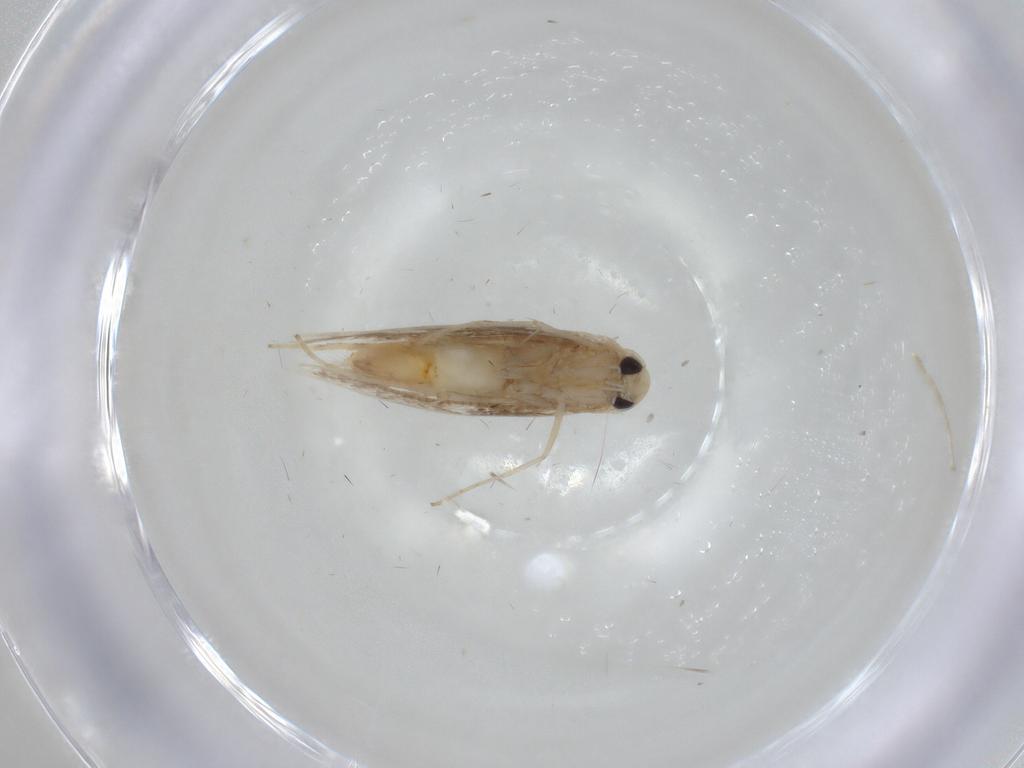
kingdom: Animalia
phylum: Arthropoda
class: Insecta
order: Lepidoptera
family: Gracillariidae
